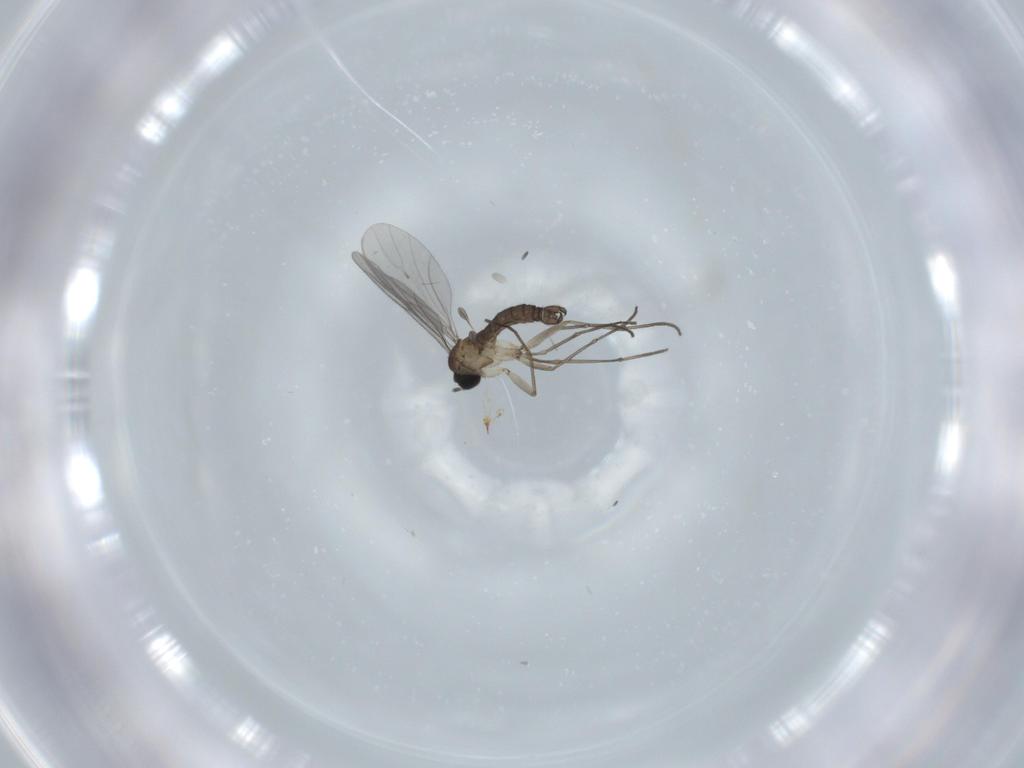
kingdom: Animalia
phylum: Arthropoda
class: Insecta
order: Diptera
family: Sciaridae
